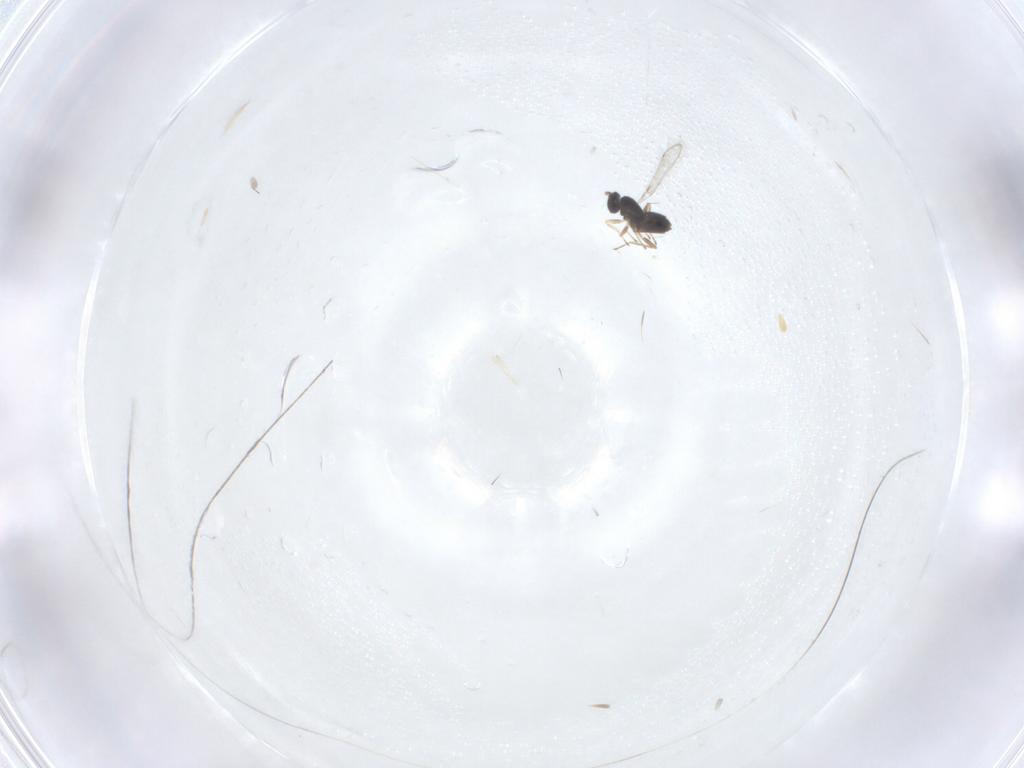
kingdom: Animalia
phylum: Arthropoda
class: Insecta
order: Hymenoptera
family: Mymaridae
